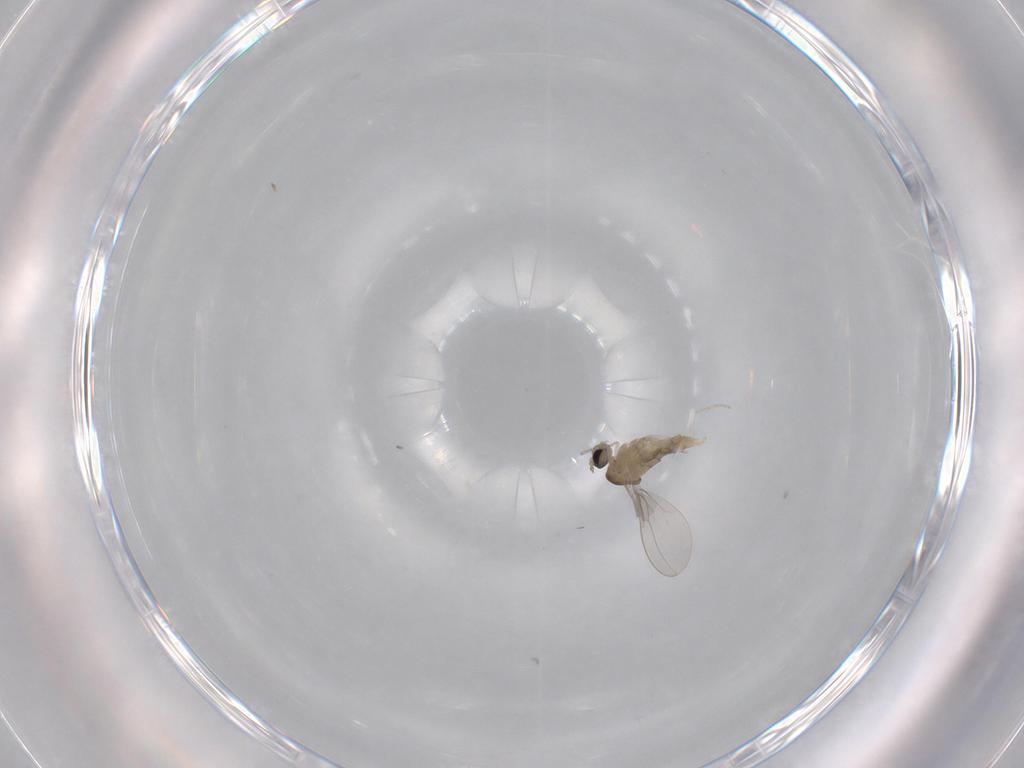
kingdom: Animalia
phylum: Arthropoda
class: Insecta
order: Diptera
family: Cecidomyiidae
